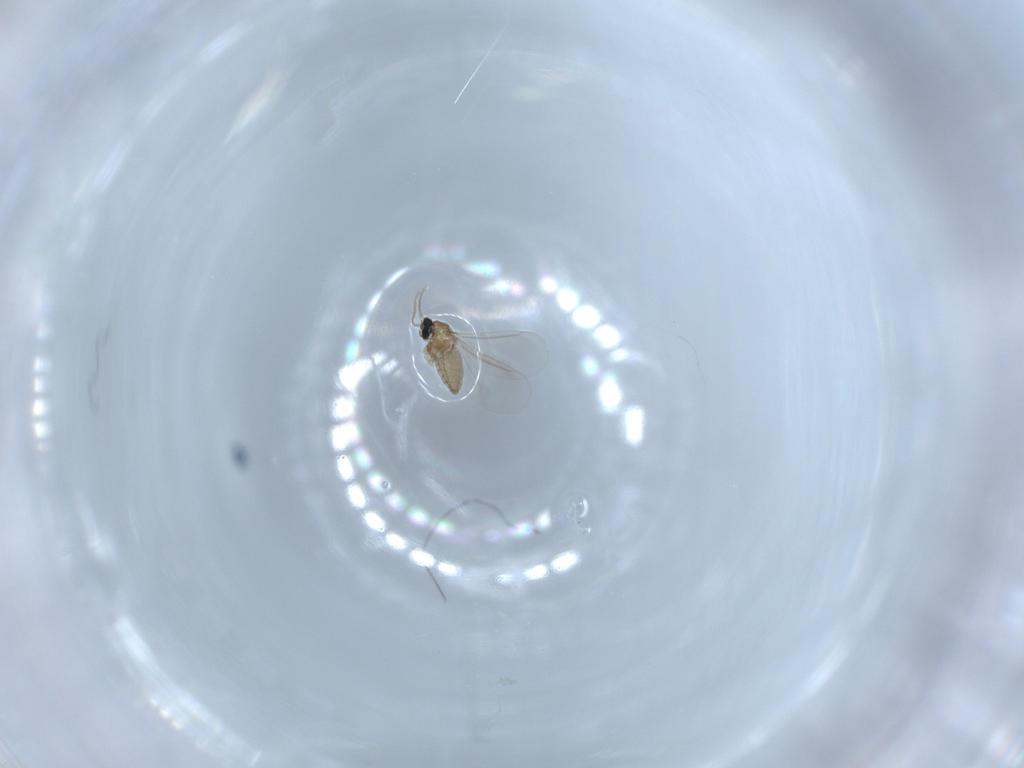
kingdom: Animalia
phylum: Arthropoda
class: Insecta
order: Diptera
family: Cecidomyiidae
